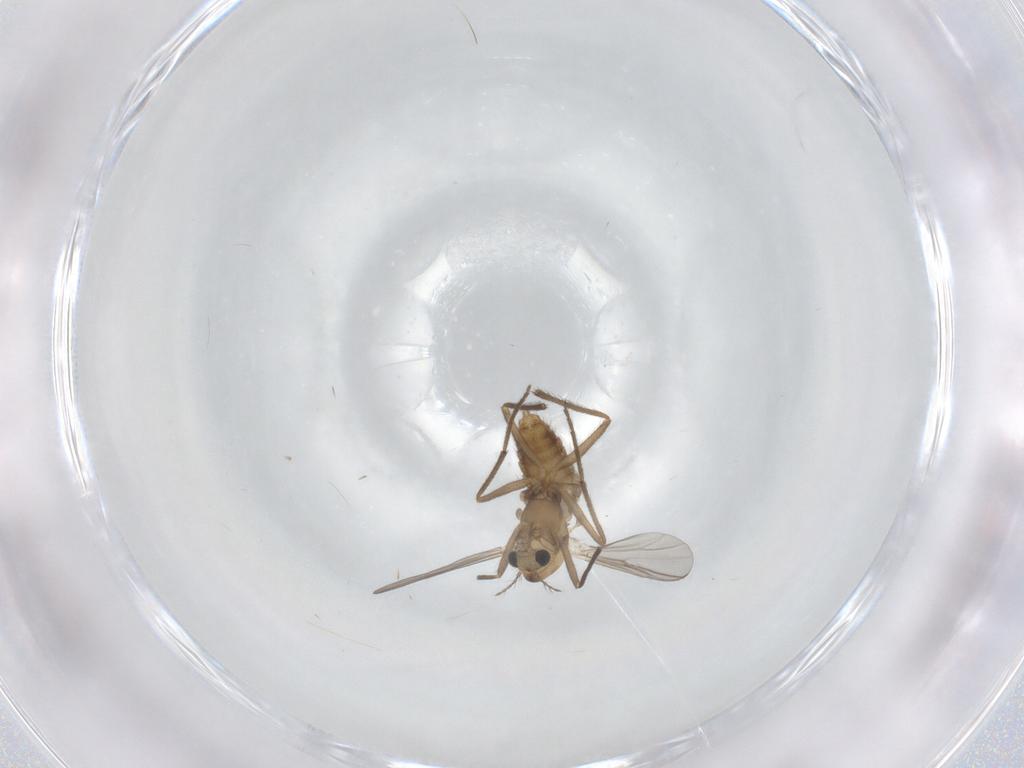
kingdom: Animalia
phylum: Arthropoda
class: Insecta
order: Diptera
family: Chironomidae
